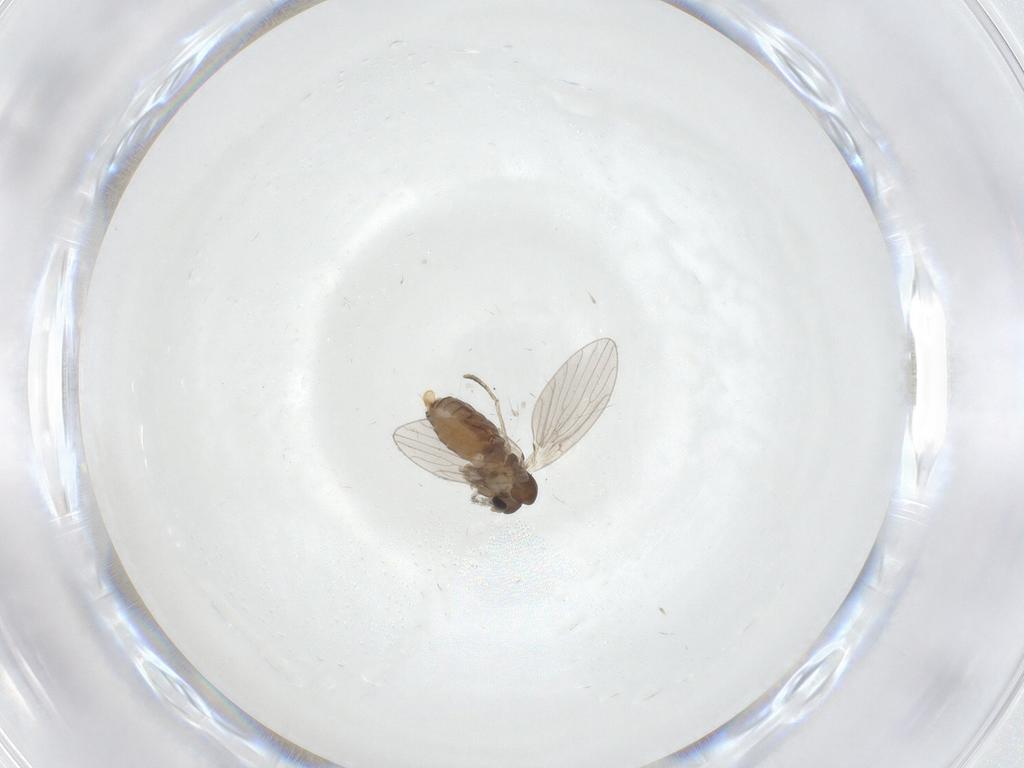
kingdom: Animalia
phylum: Arthropoda
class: Insecta
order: Diptera
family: Psychodidae
